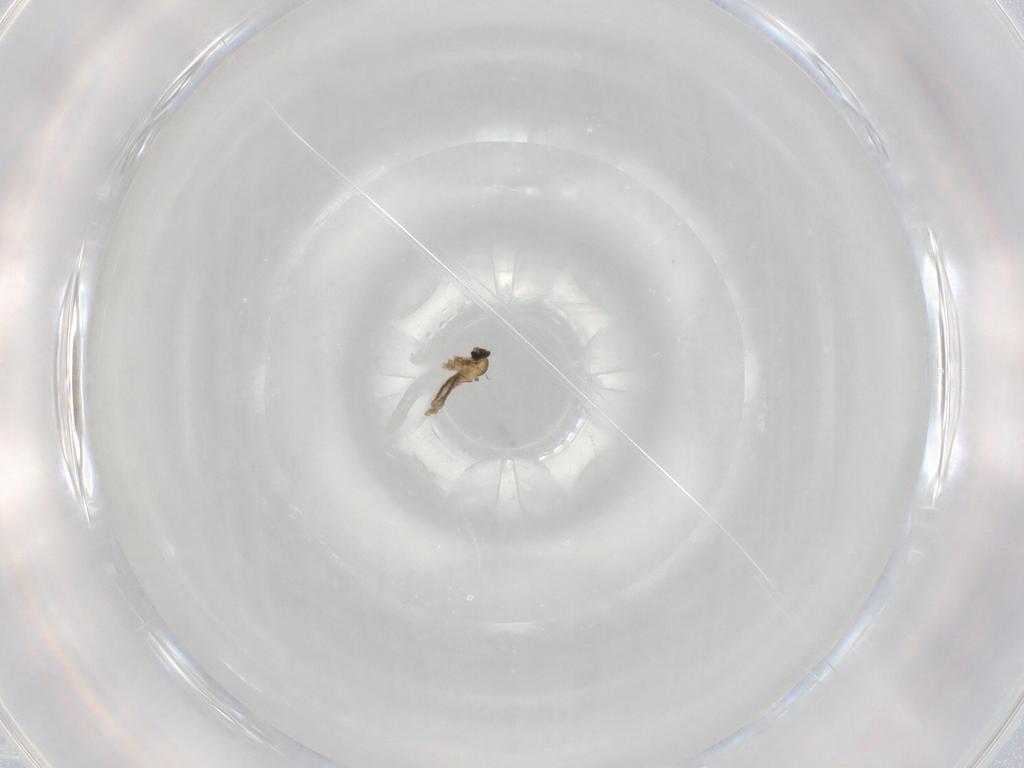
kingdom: Animalia
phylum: Arthropoda
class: Insecta
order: Diptera
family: Cecidomyiidae
